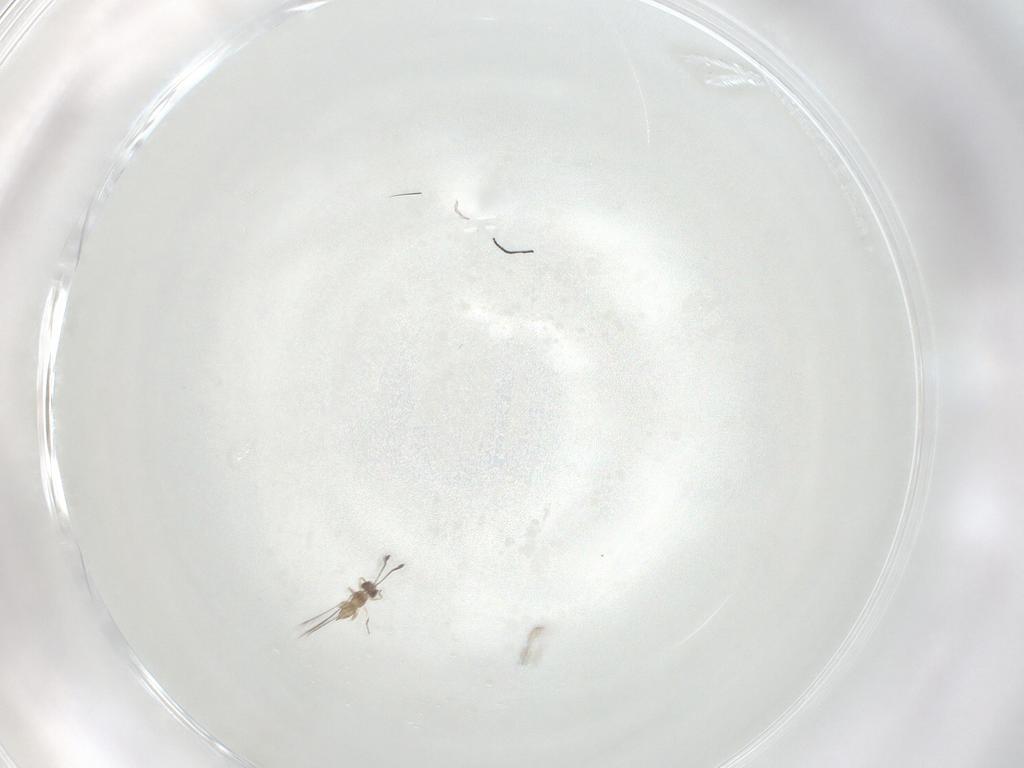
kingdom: Animalia
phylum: Arthropoda
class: Insecta
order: Hymenoptera
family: Mymaridae
